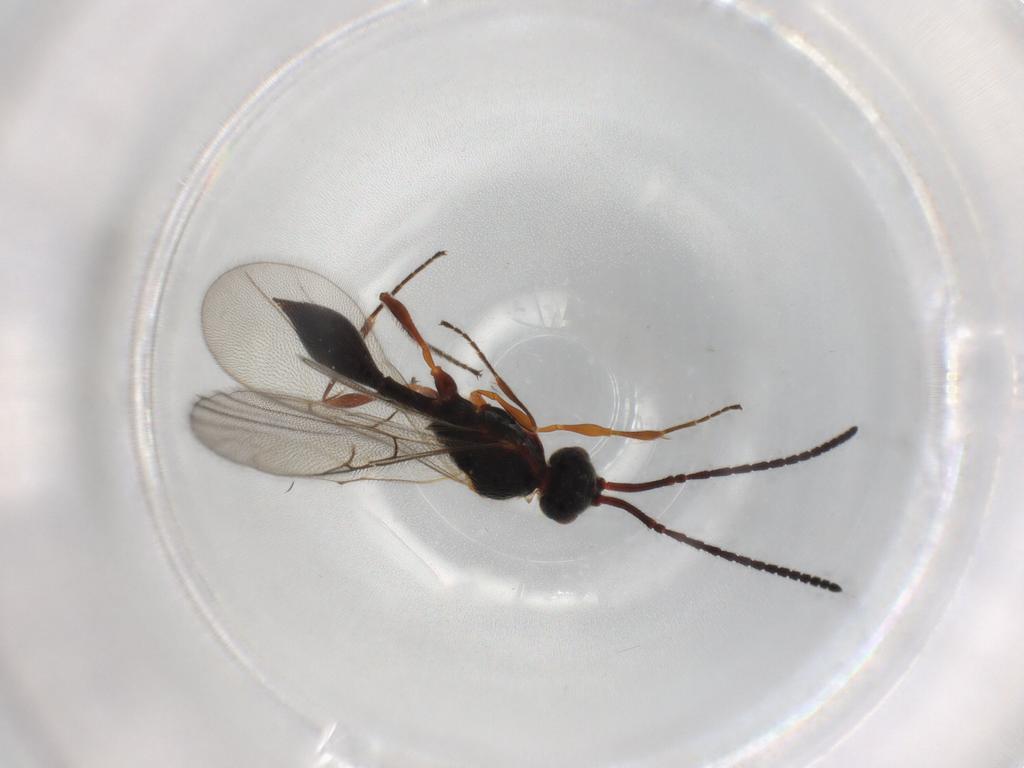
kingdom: Animalia
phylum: Arthropoda
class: Insecta
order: Hymenoptera
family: Diapriidae
